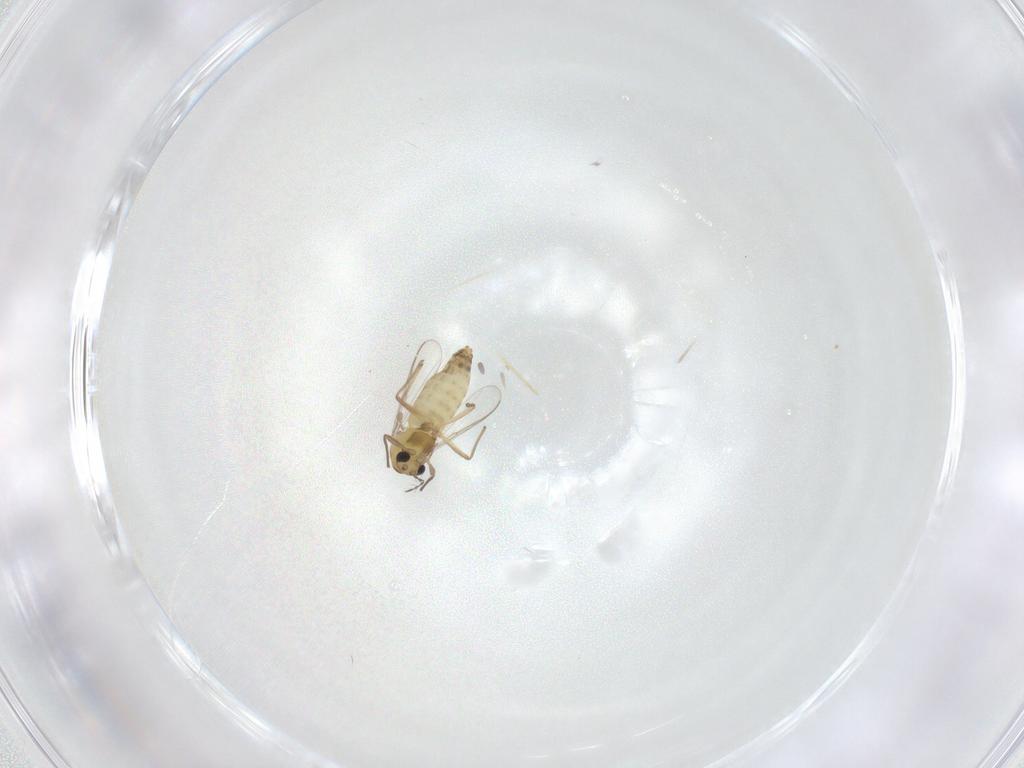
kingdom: Animalia
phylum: Arthropoda
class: Insecta
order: Diptera
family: Chironomidae
